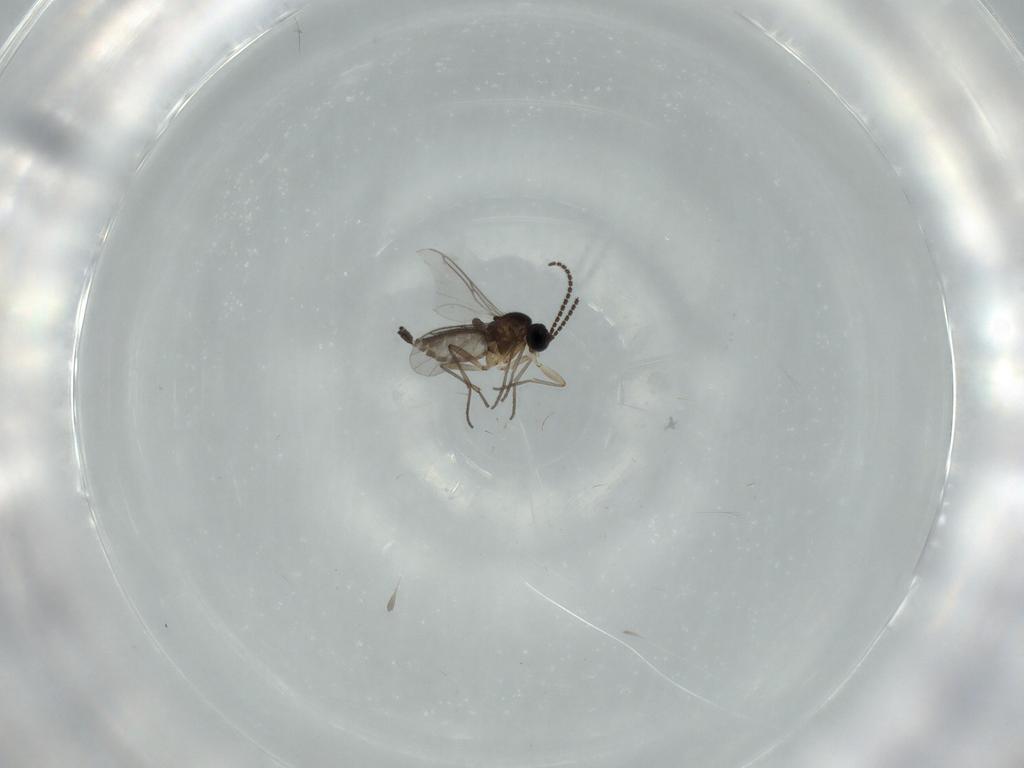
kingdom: Animalia
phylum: Arthropoda
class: Insecta
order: Diptera
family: Sciaridae
